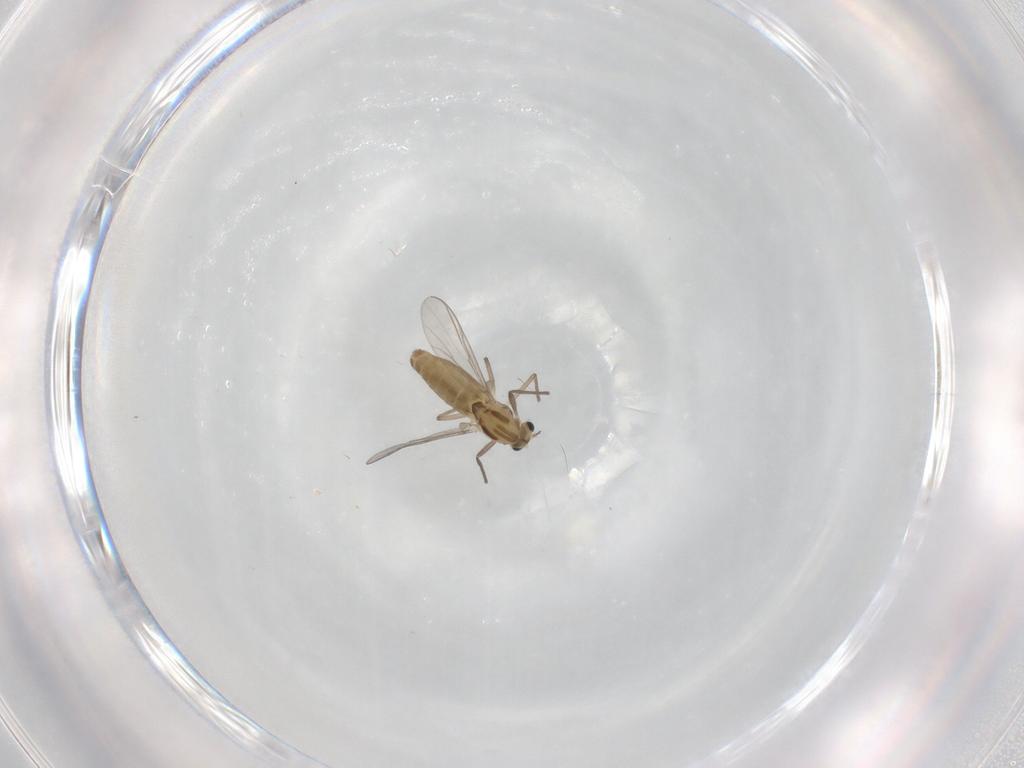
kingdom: Animalia
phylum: Arthropoda
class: Insecta
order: Diptera
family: Chironomidae
